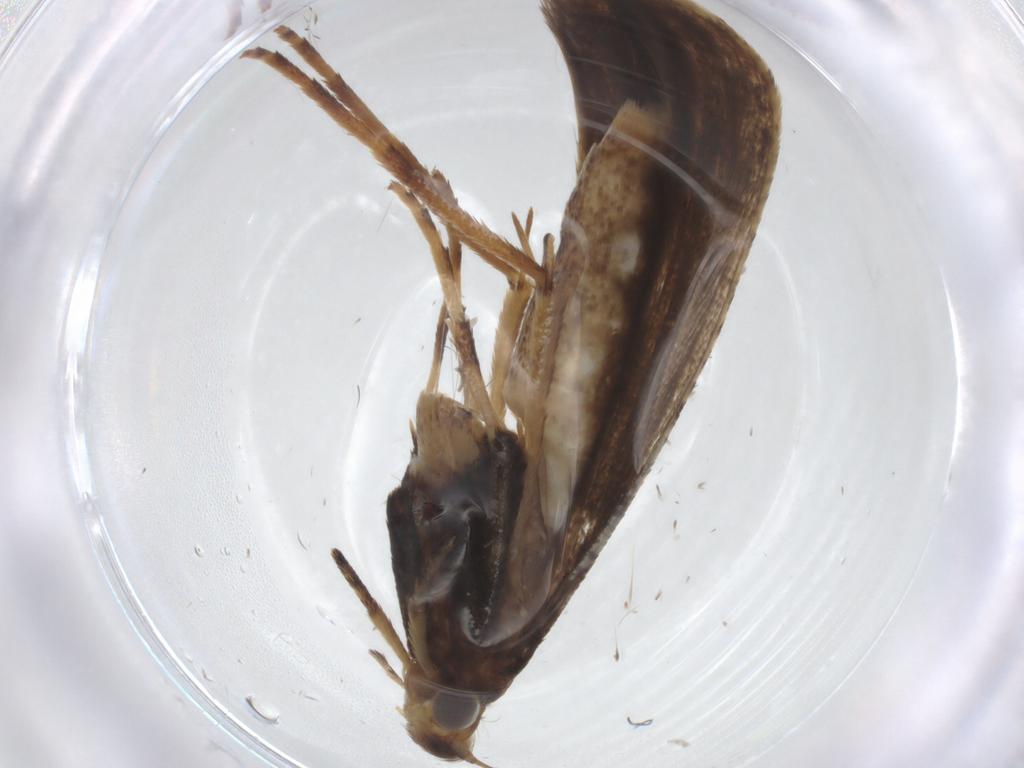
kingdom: Animalia
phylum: Arthropoda
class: Insecta
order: Lepidoptera
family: Gracillariidae
